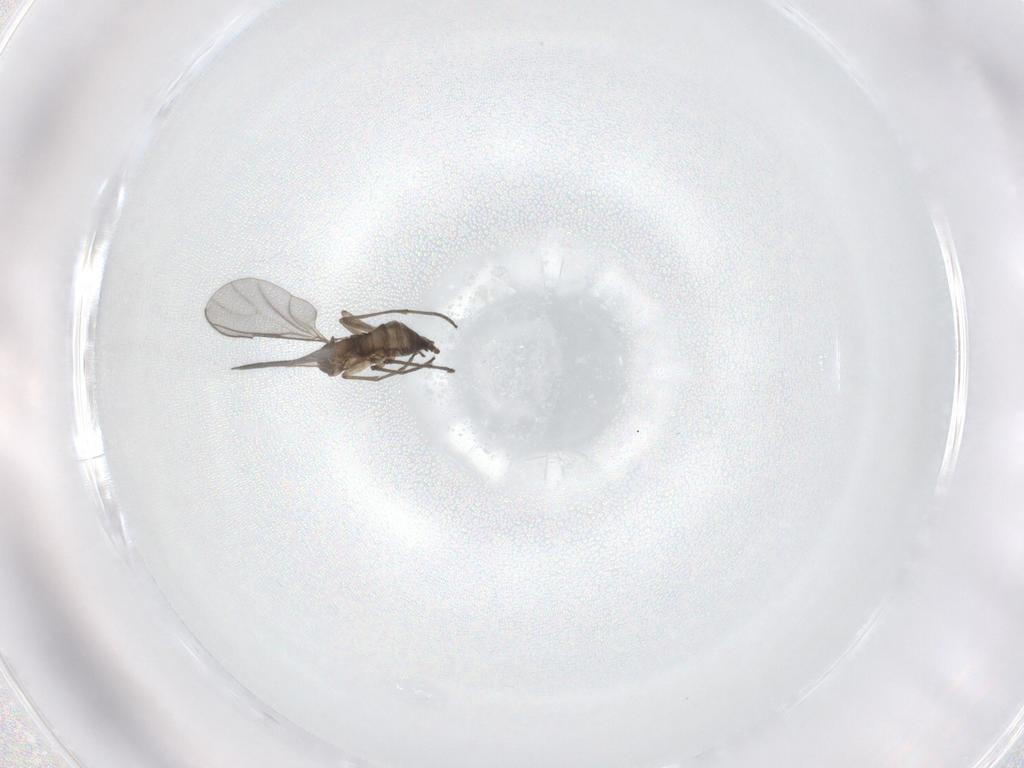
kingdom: Animalia
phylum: Arthropoda
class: Insecta
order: Diptera
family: Sciaridae
